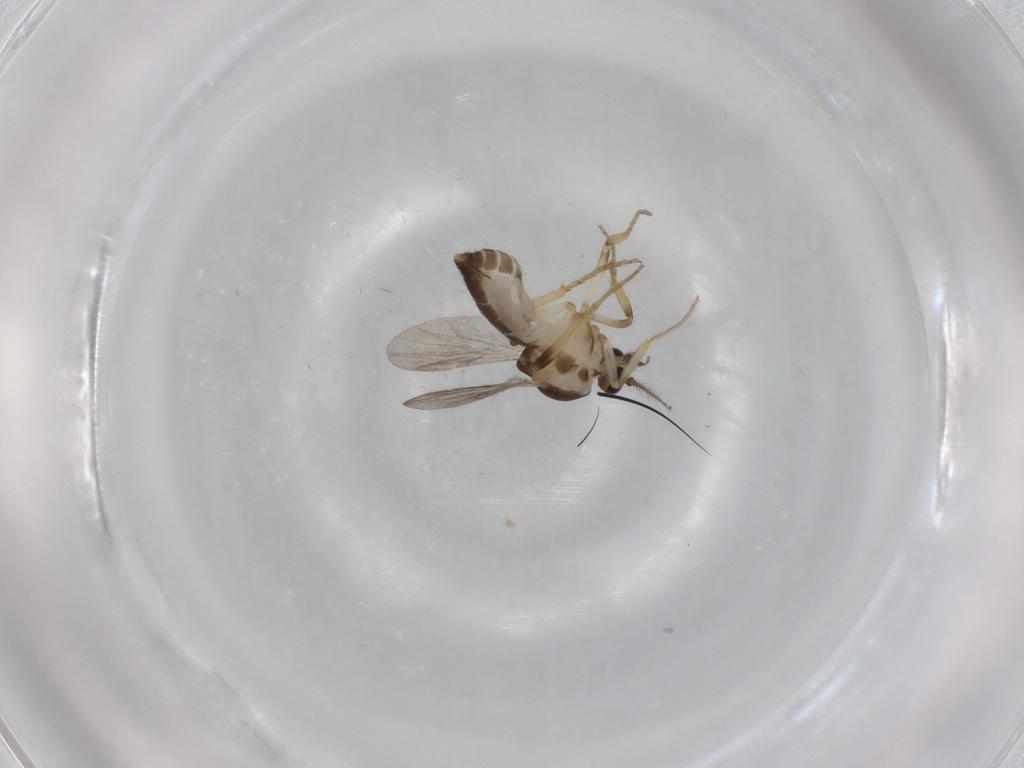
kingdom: Animalia
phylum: Arthropoda
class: Insecta
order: Diptera
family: Ceratopogonidae
